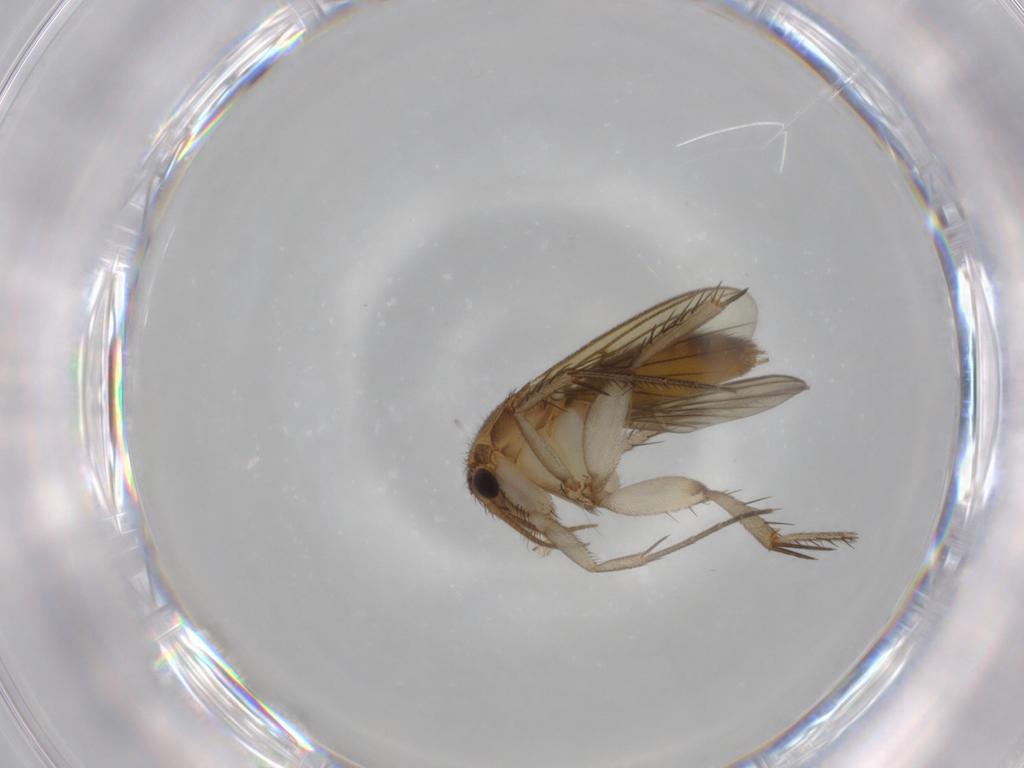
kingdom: Animalia
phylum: Arthropoda
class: Insecta
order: Diptera
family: Mycetophilidae
